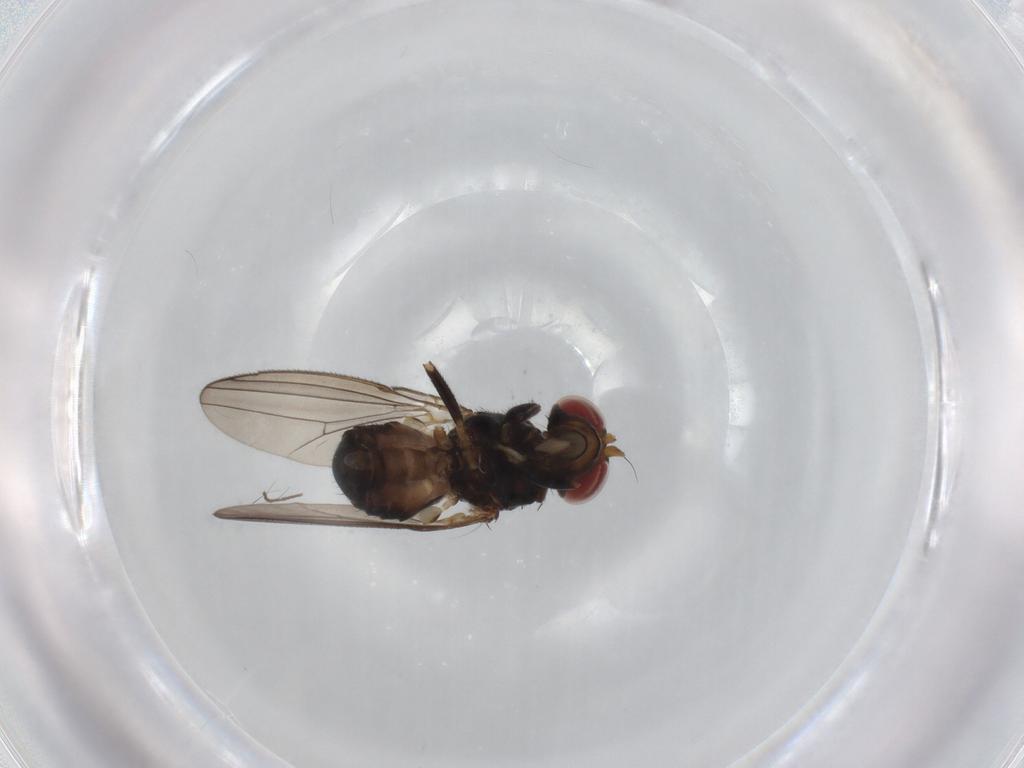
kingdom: Animalia
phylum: Arthropoda
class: Insecta
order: Diptera
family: Aulacigastridae
